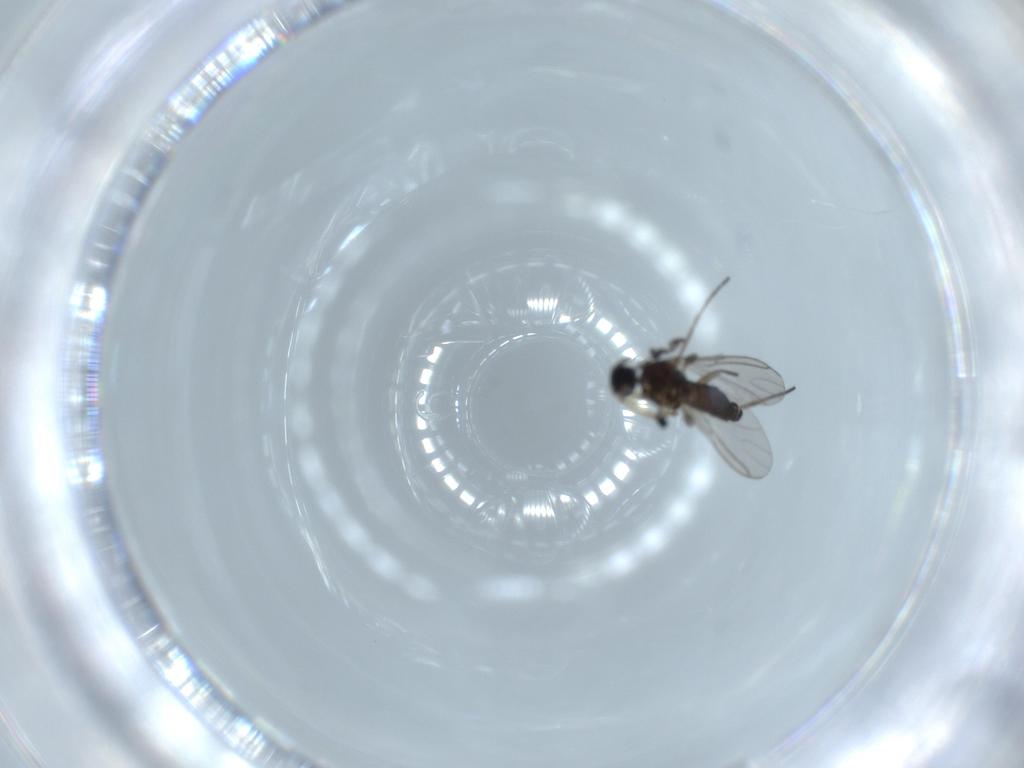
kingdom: Animalia
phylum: Arthropoda
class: Insecta
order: Diptera
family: Sciaridae
